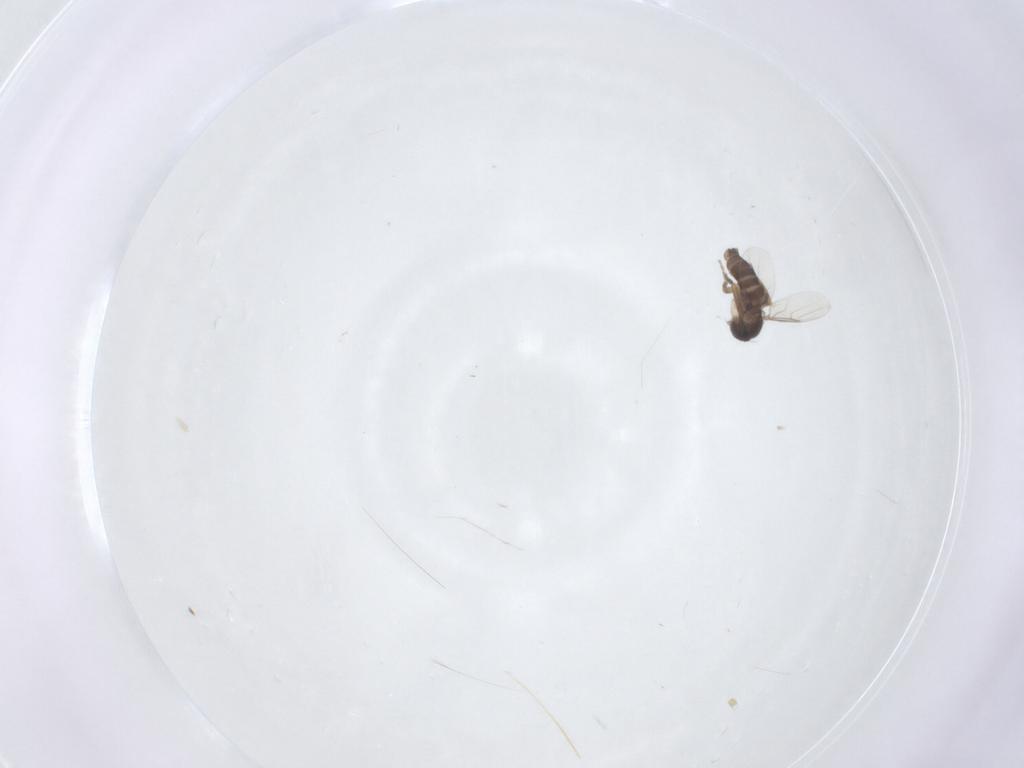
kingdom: Animalia
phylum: Arthropoda
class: Insecta
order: Diptera
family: Phoridae
